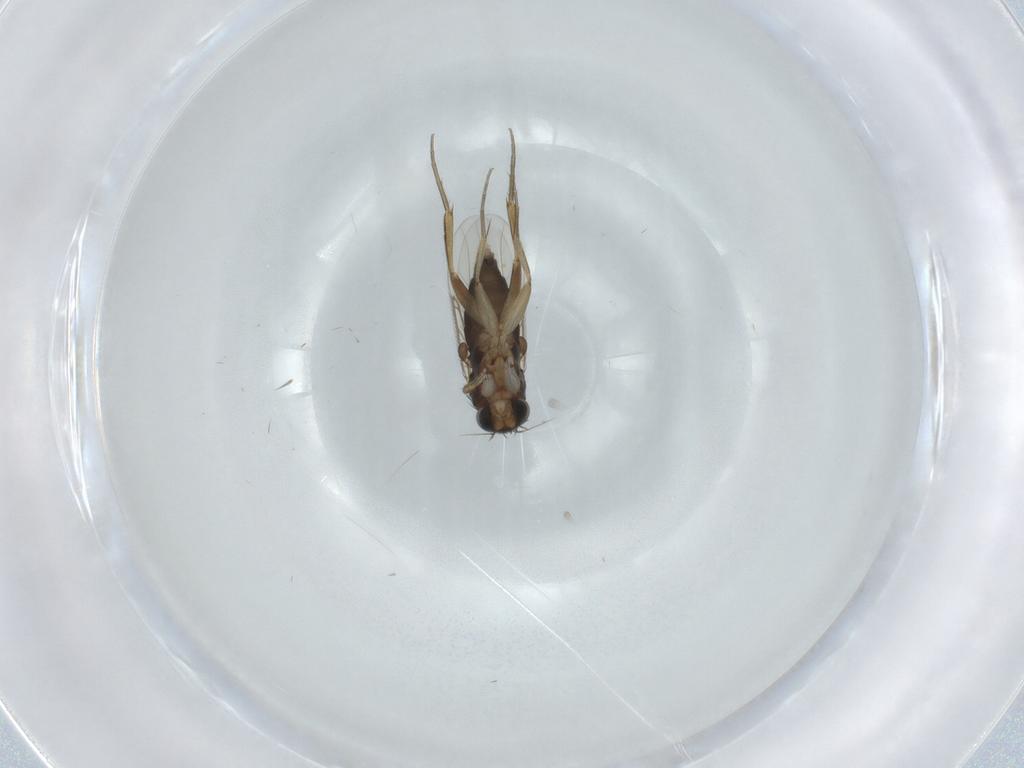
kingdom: Animalia
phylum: Arthropoda
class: Insecta
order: Diptera
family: Phoridae
